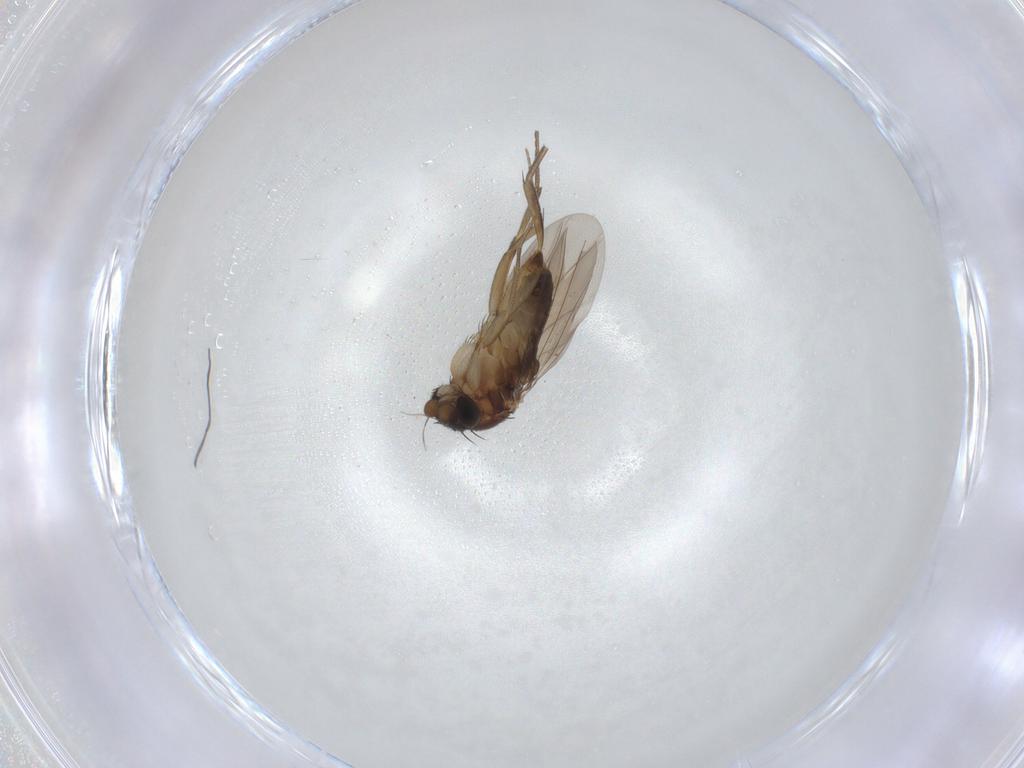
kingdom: Animalia
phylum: Arthropoda
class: Insecta
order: Diptera
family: Phoridae
